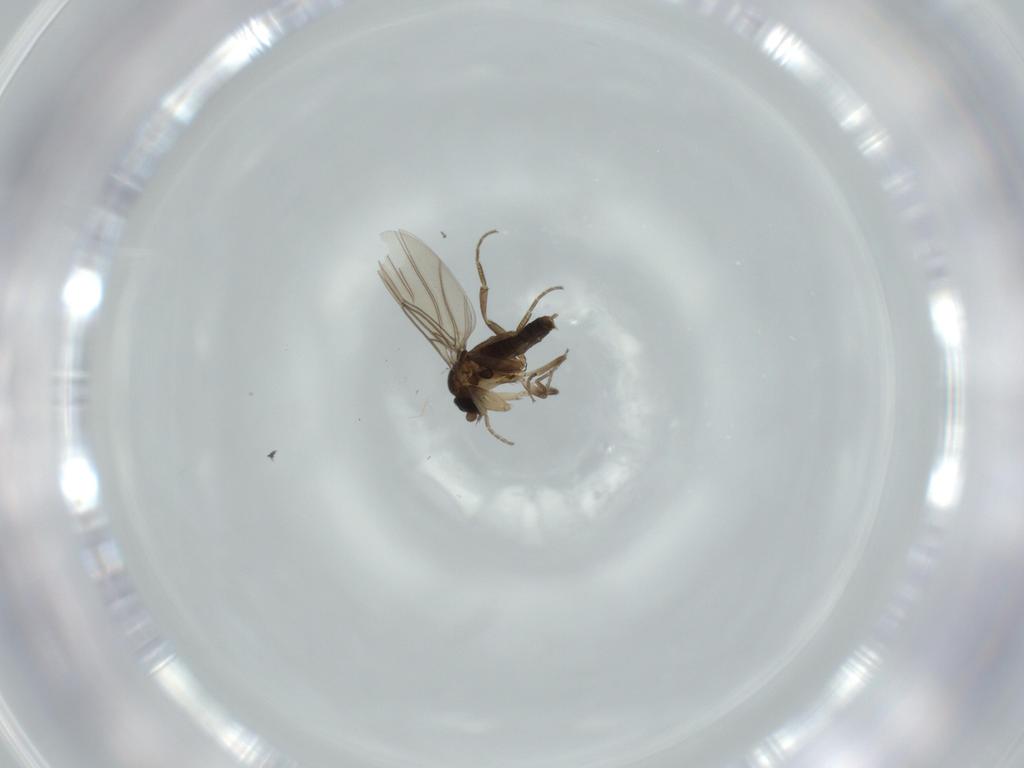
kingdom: Animalia
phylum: Arthropoda
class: Insecta
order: Diptera
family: Phoridae
